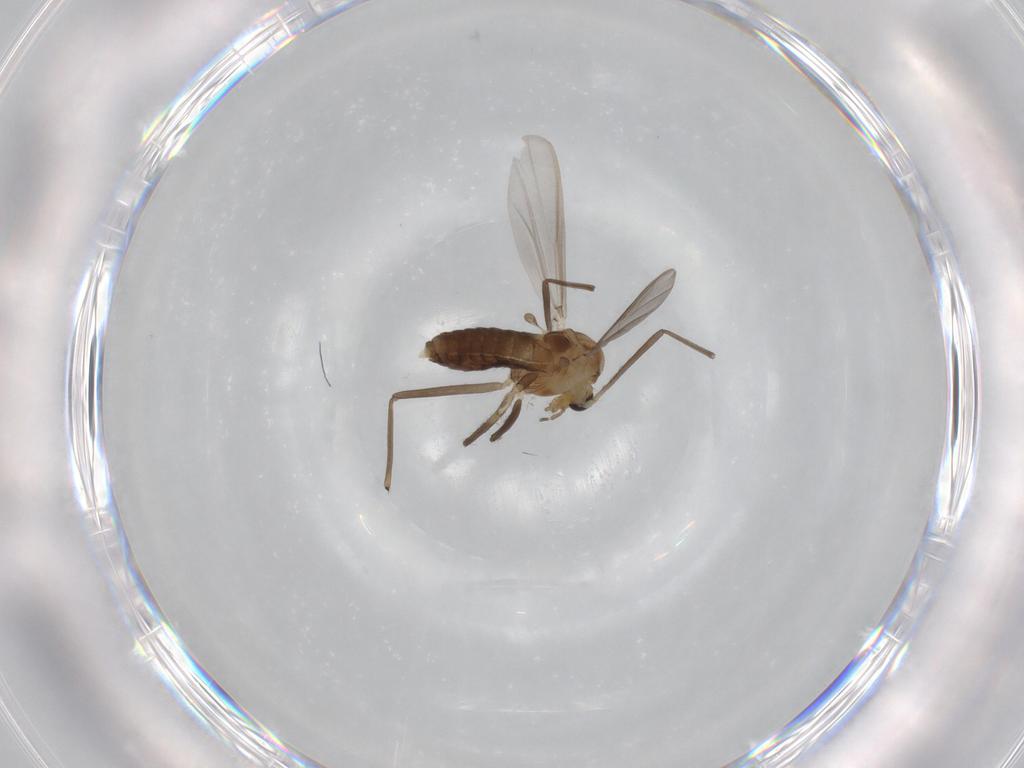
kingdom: Animalia
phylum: Arthropoda
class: Insecta
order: Diptera
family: Chironomidae
